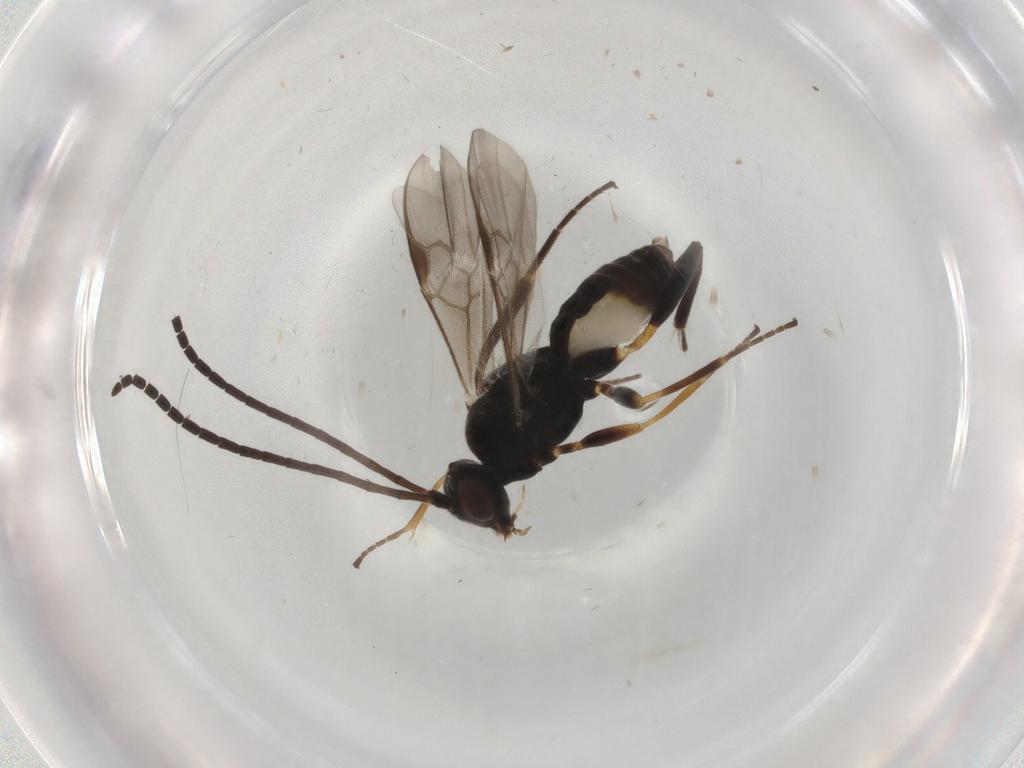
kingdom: Animalia
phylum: Arthropoda
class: Insecta
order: Hymenoptera
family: Braconidae
